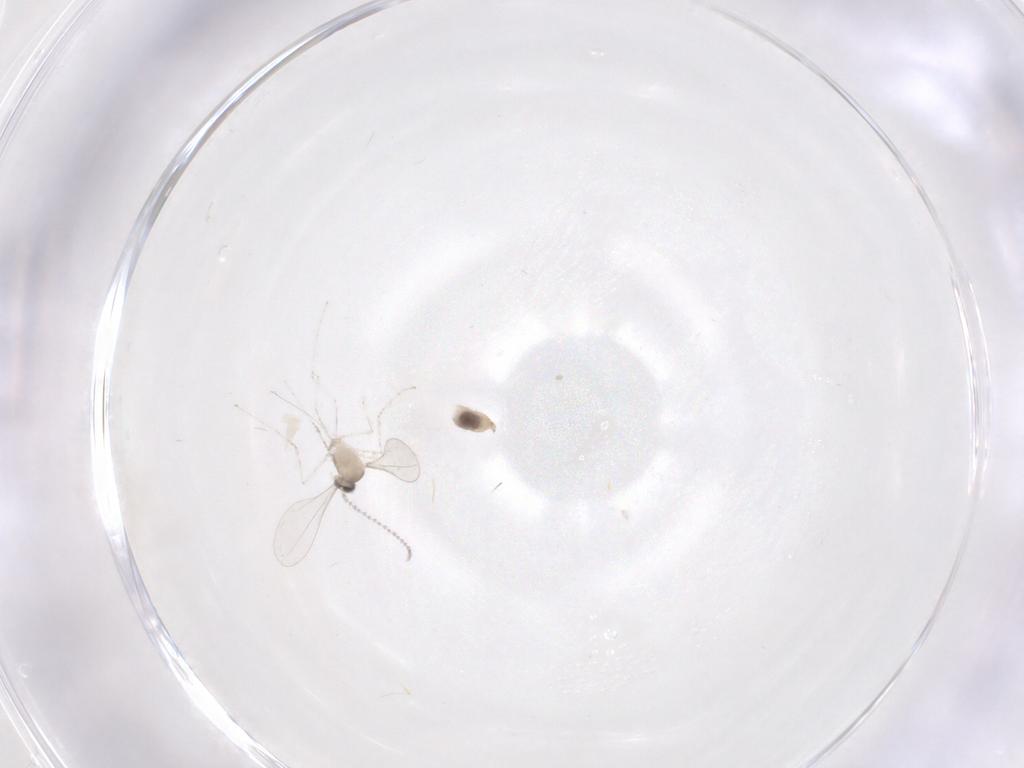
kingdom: Animalia
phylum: Arthropoda
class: Insecta
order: Diptera
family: Cecidomyiidae
